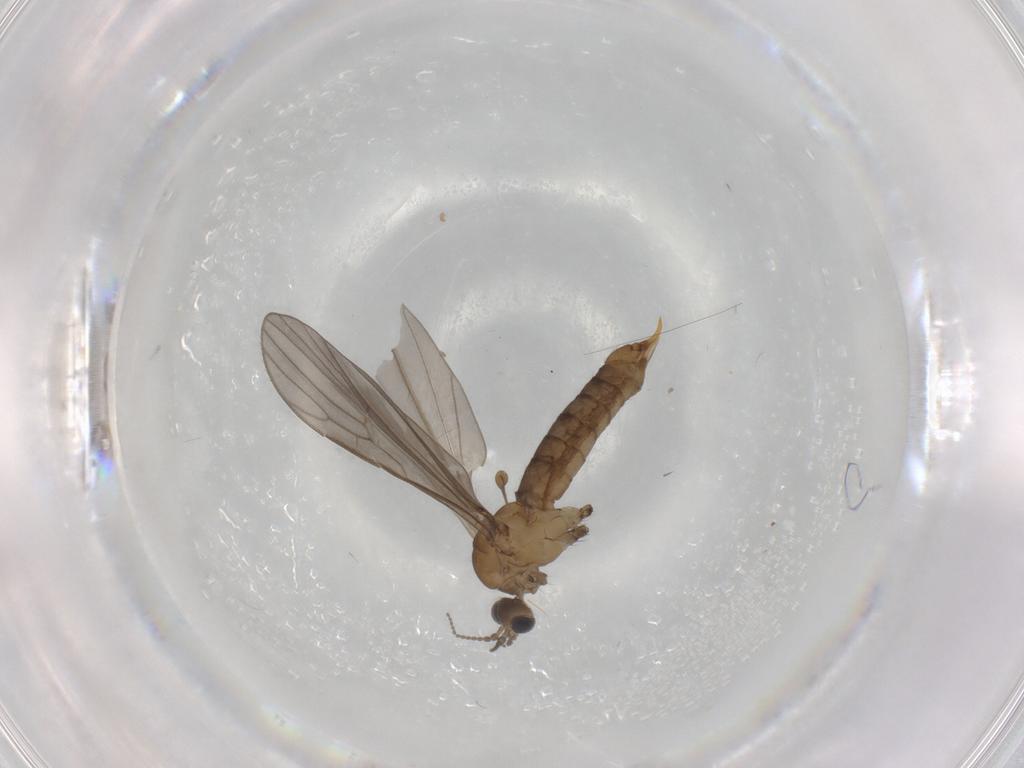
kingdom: Animalia
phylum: Arthropoda
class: Insecta
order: Diptera
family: Limoniidae
